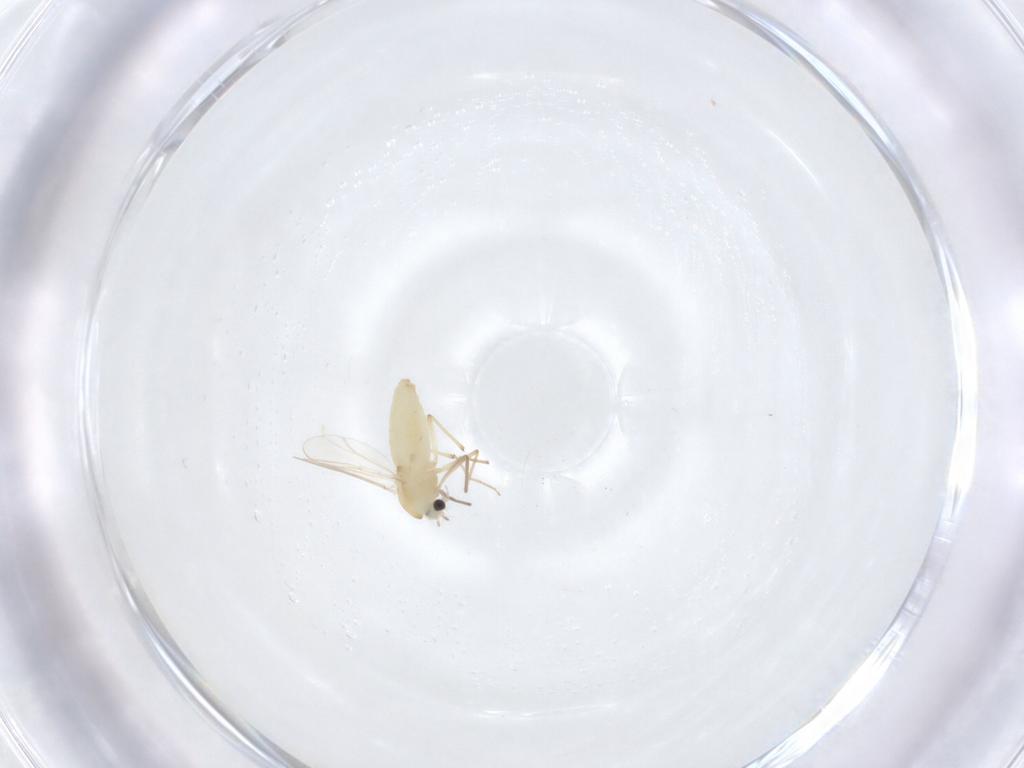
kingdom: Animalia
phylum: Arthropoda
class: Insecta
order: Diptera
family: Chironomidae
